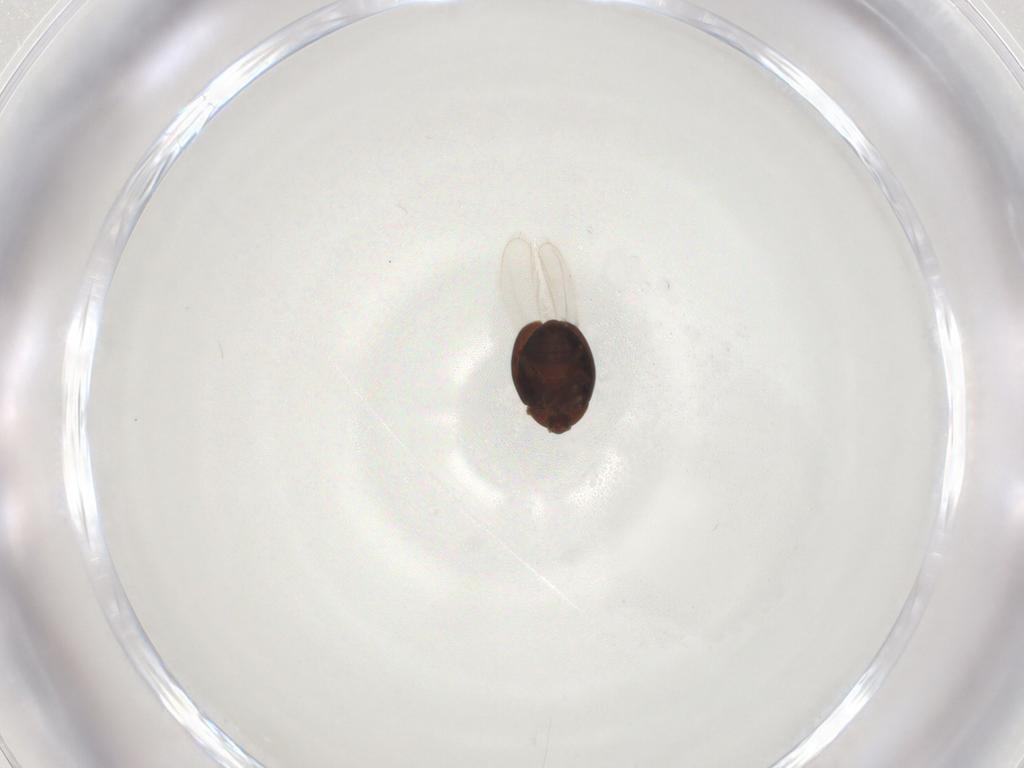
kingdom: Animalia
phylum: Arthropoda
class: Insecta
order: Coleoptera
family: Corylophidae
